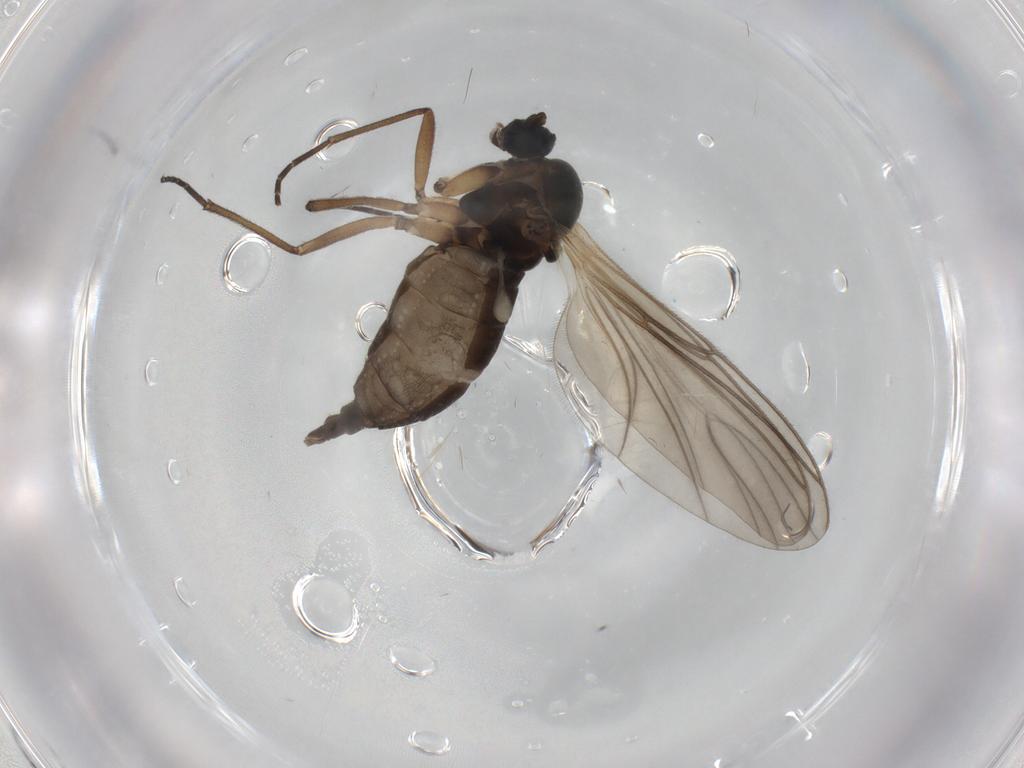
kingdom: Animalia
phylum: Arthropoda
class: Insecta
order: Diptera
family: Sciaridae
